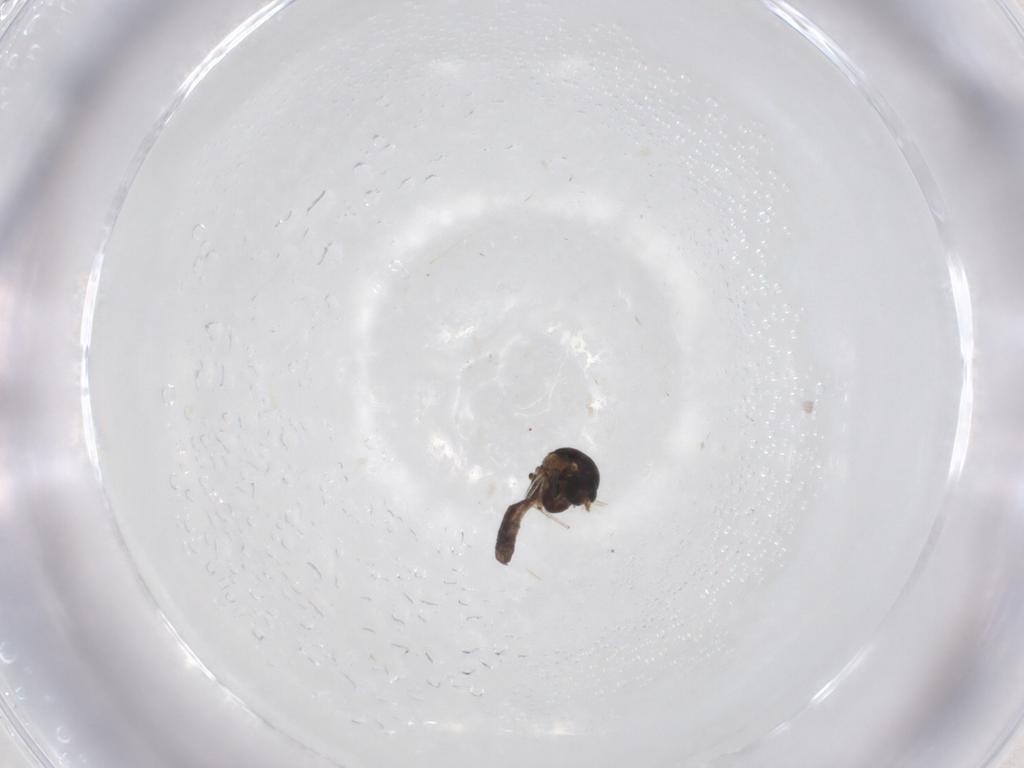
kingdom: Animalia
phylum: Arthropoda
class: Insecta
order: Diptera
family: Ceratopogonidae
